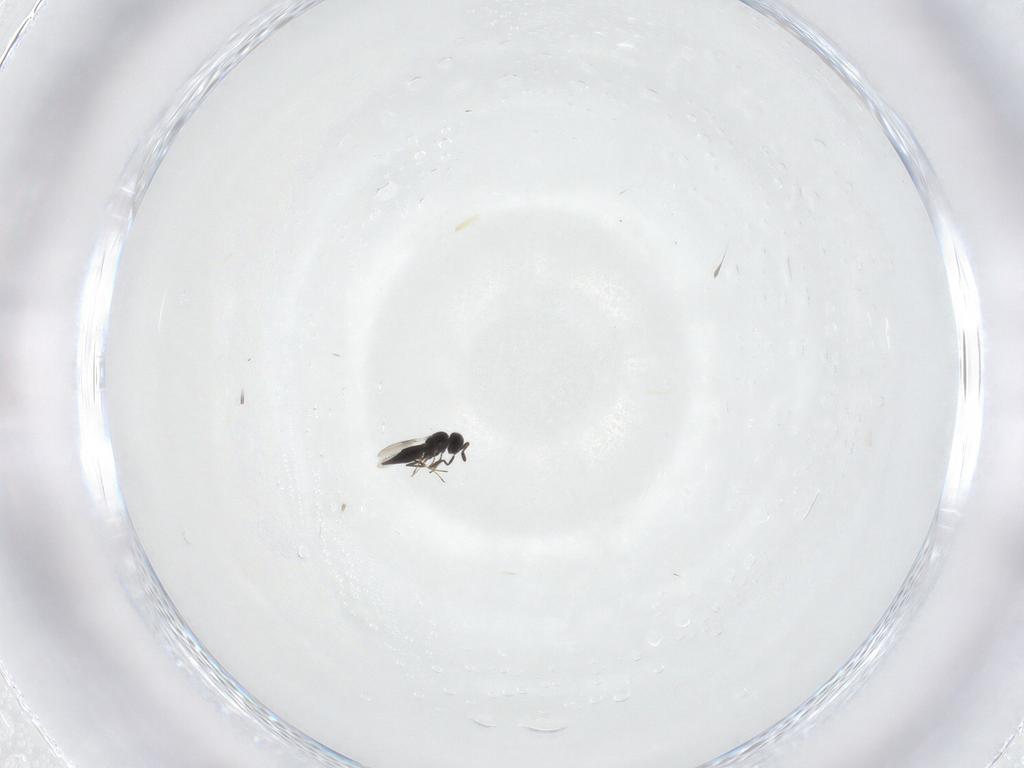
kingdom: Animalia
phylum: Arthropoda
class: Insecta
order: Hymenoptera
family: Scelionidae
